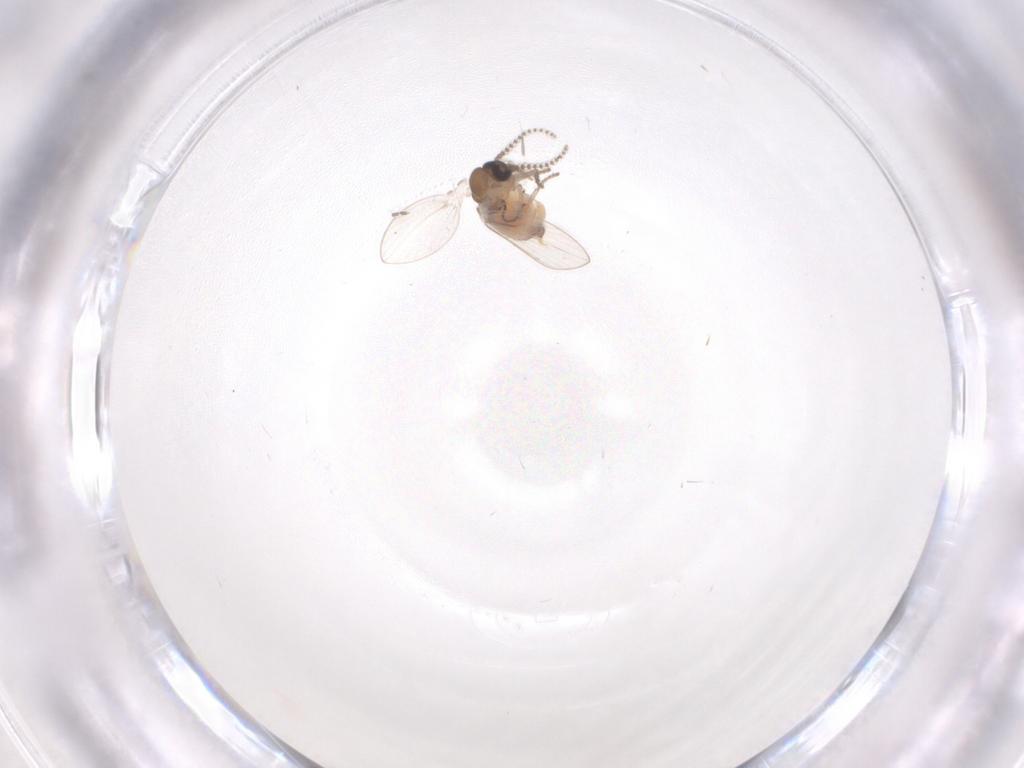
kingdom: Animalia
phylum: Arthropoda
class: Insecta
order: Diptera
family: Cecidomyiidae
